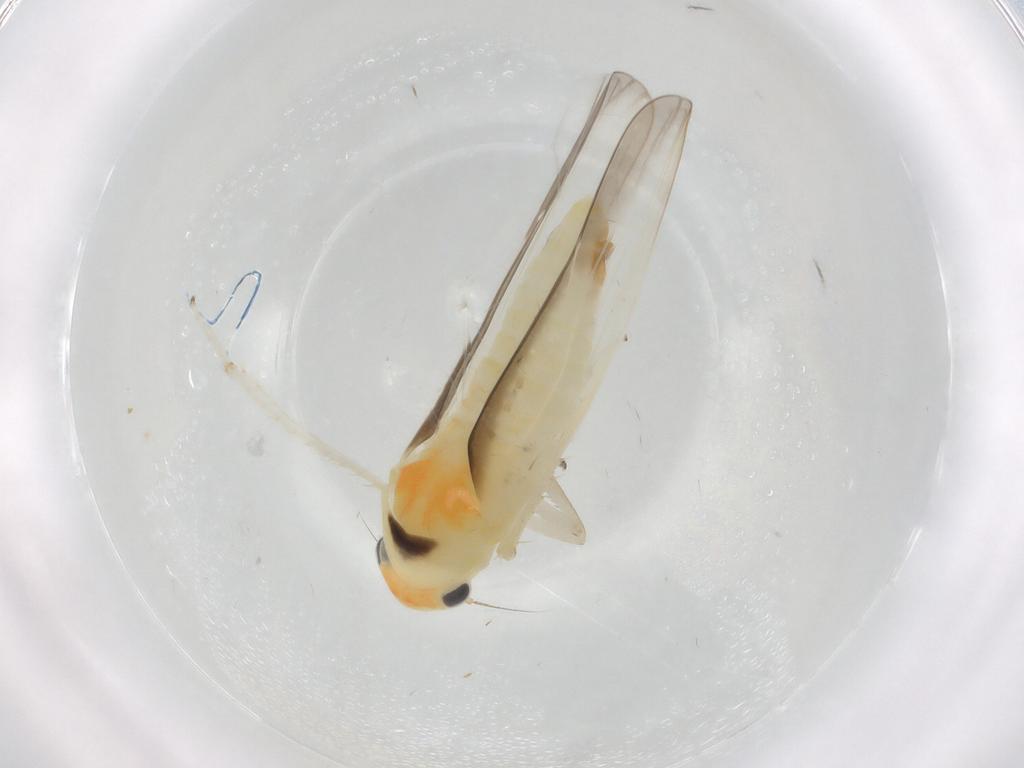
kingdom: Animalia
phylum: Arthropoda
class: Insecta
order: Hemiptera
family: Cicadellidae
